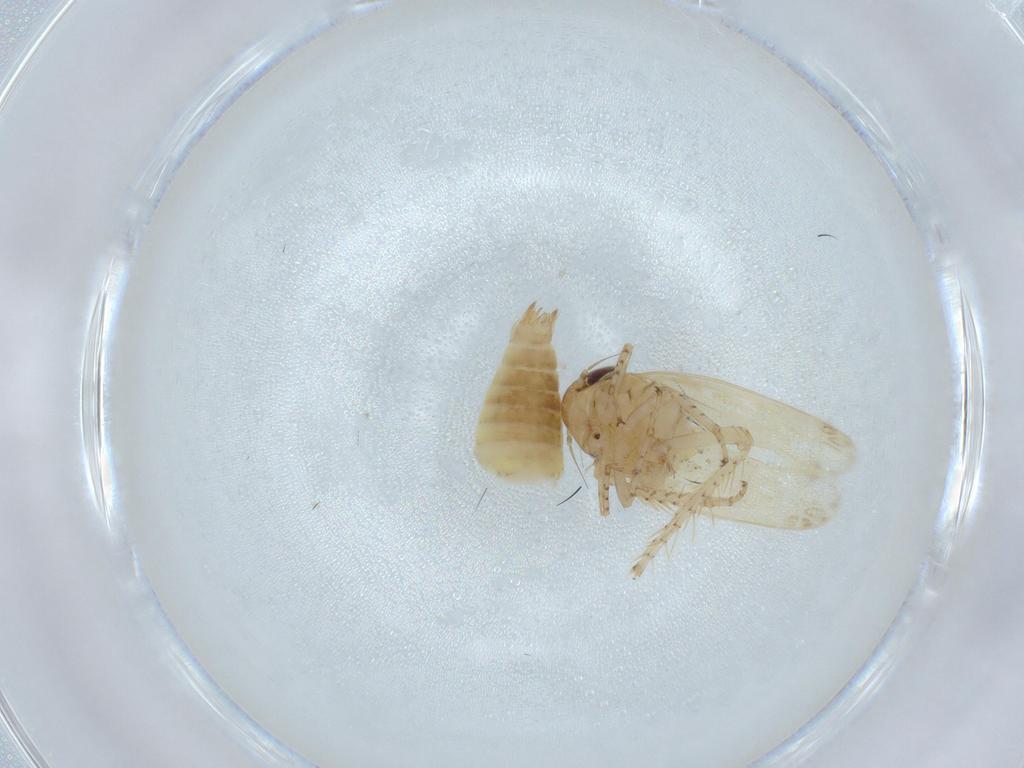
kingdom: Animalia
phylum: Arthropoda
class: Insecta
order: Hemiptera
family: Cicadellidae
